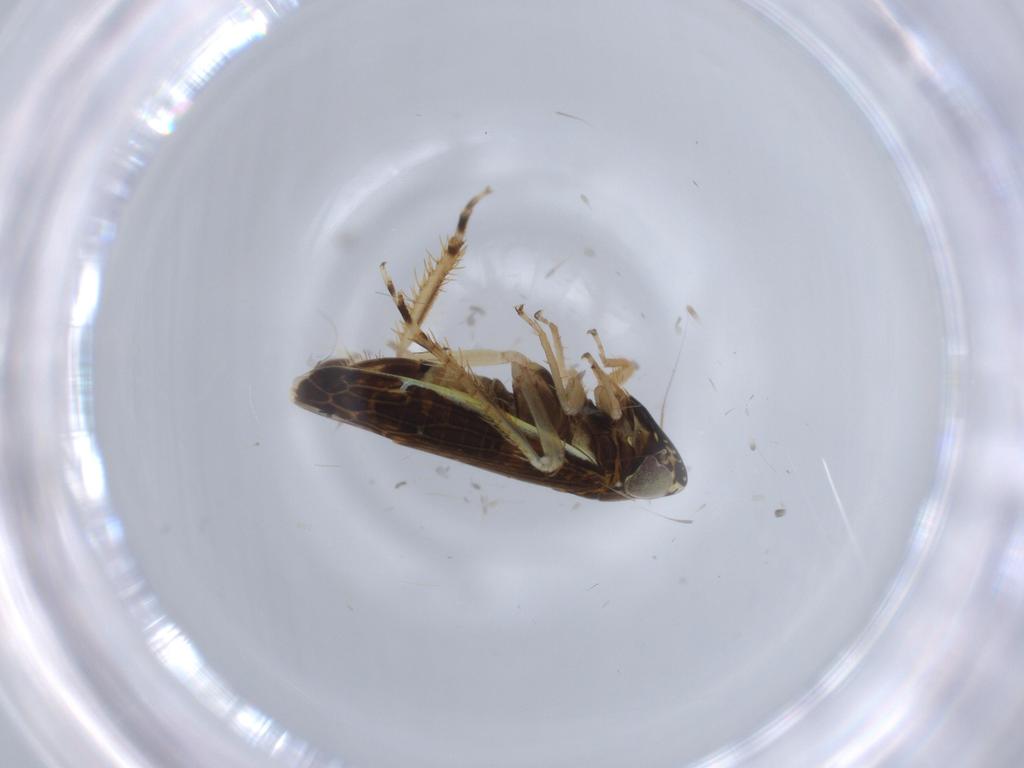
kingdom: Animalia
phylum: Arthropoda
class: Insecta
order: Hemiptera
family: Cicadellidae
